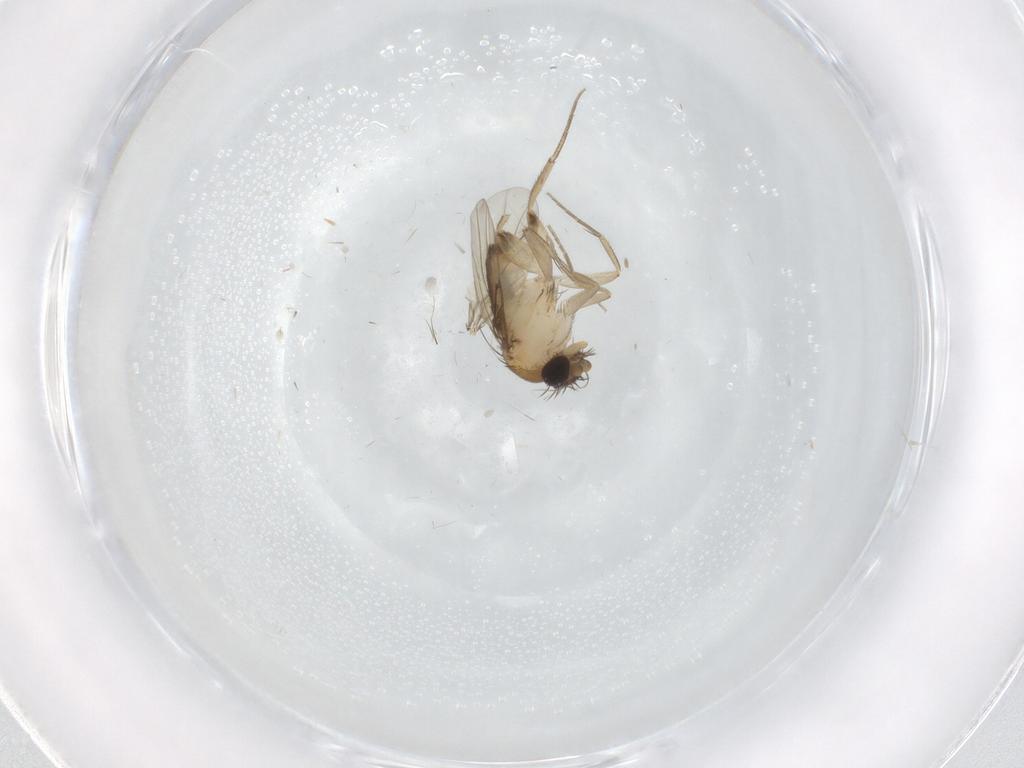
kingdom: Animalia
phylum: Arthropoda
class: Insecta
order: Diptera
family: Phoridae
